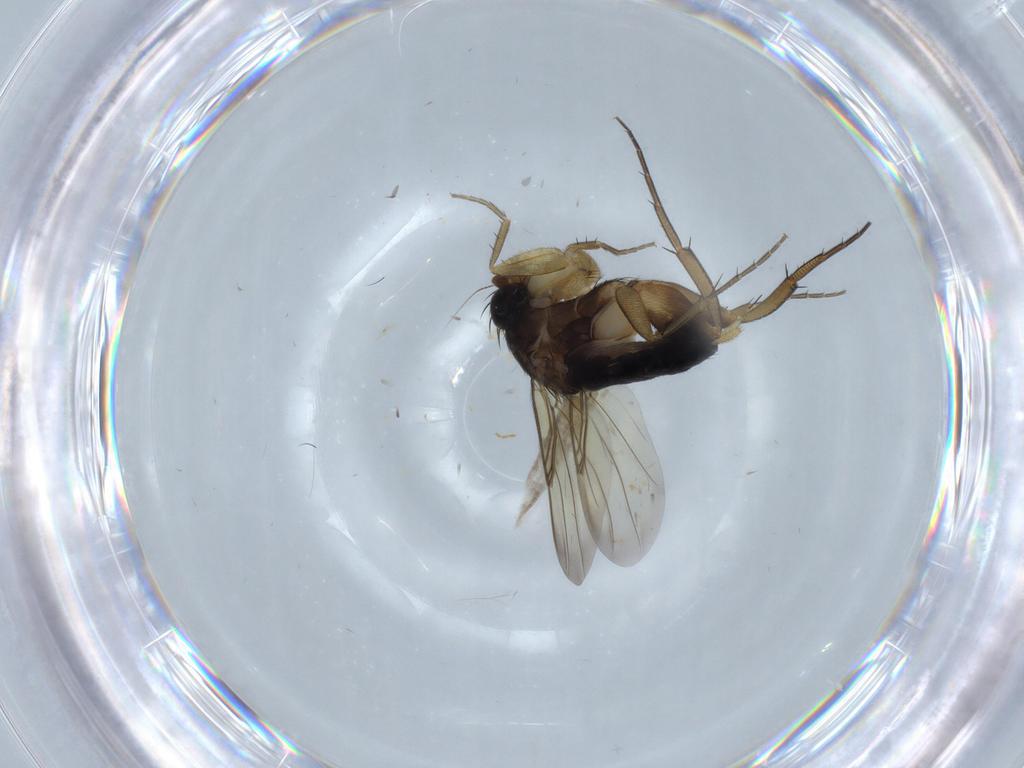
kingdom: Animalia
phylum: Arthropoda
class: Insecta
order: Diptera
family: Phoridae
